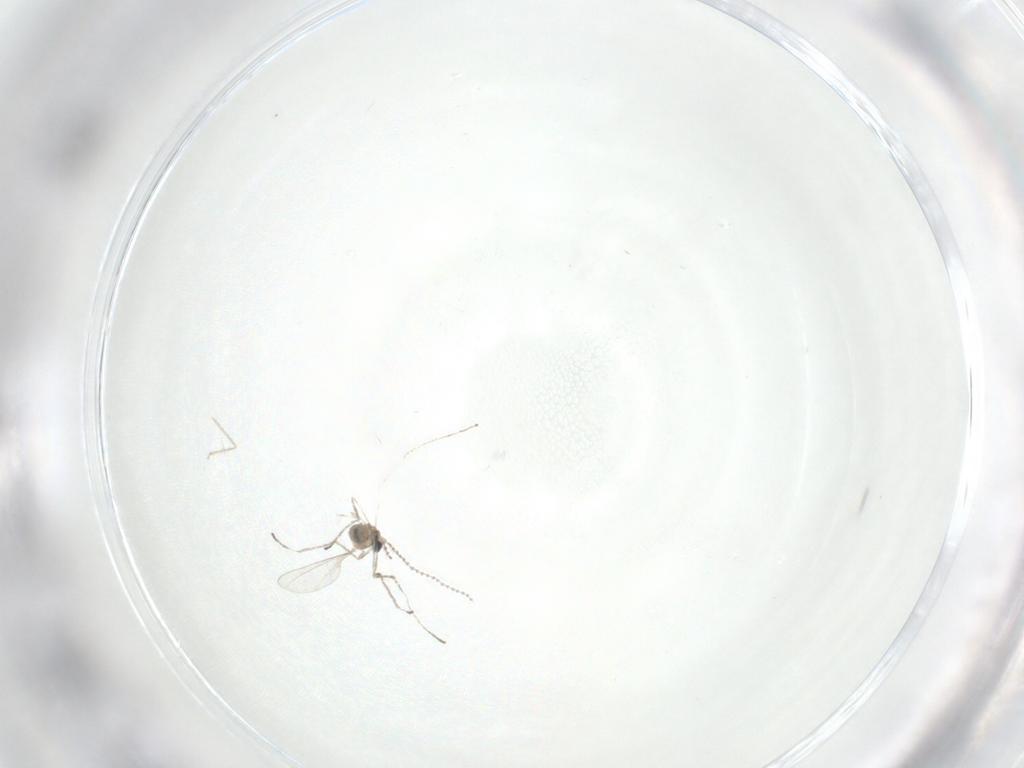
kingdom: Animalia
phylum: Arthropoda
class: Insecta
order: Diptera
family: Cecidomyiidae
